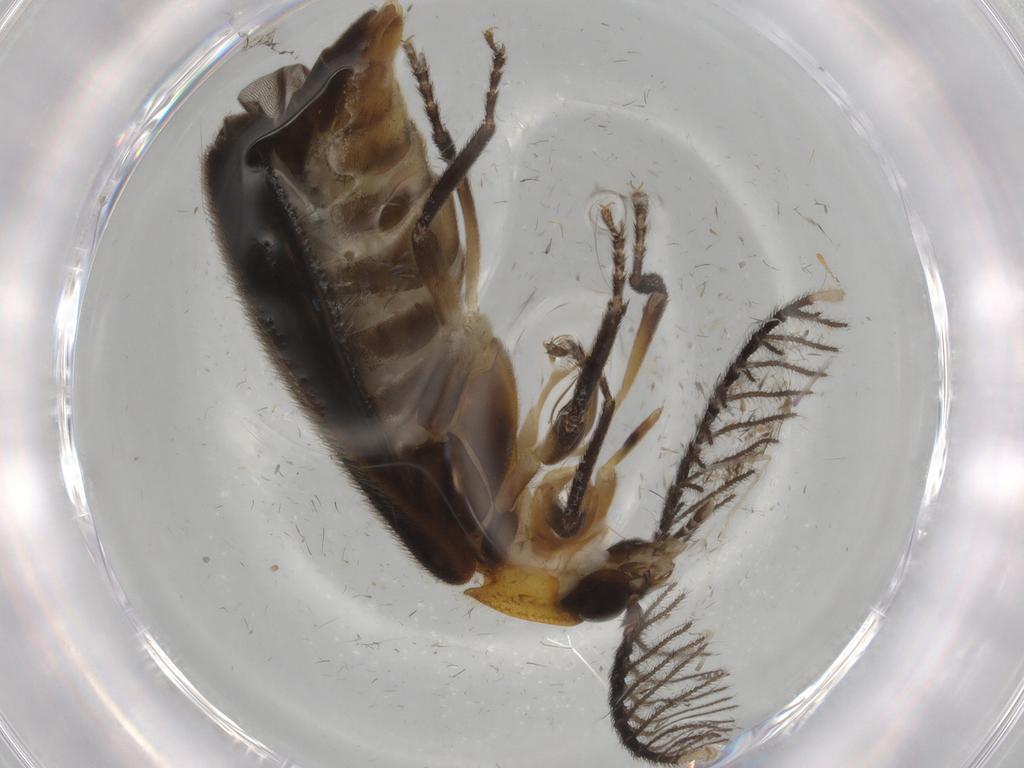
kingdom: Animalia
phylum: Arthropoda
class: Insecta
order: Coleoptera
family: Lampyridae
